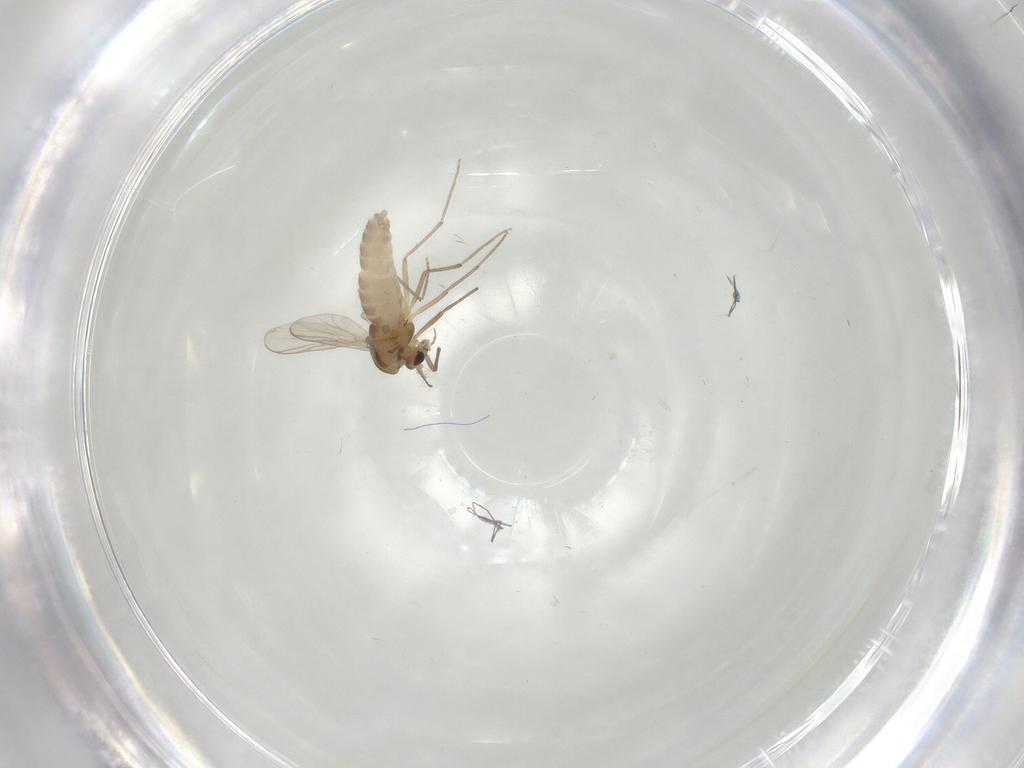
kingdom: Animalia
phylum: Arthropoda
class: Insecta
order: Diptera
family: Chironomidae
